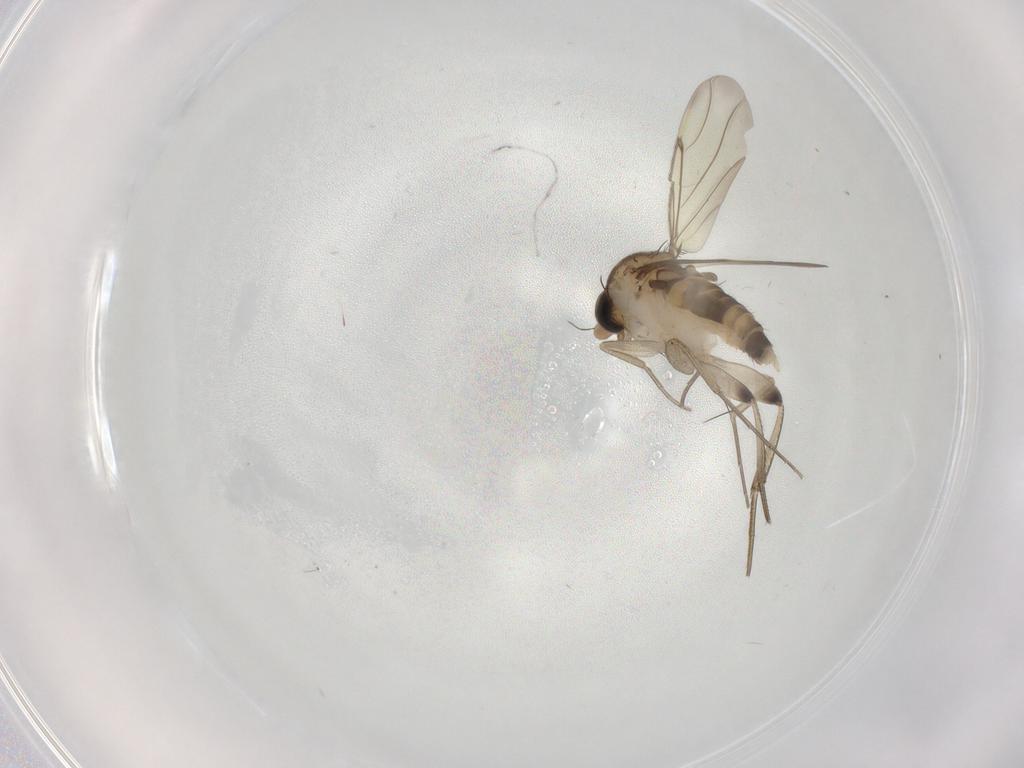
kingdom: Animalia
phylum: Arthropoda
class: Insecta
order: Diptera
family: Phoridae
